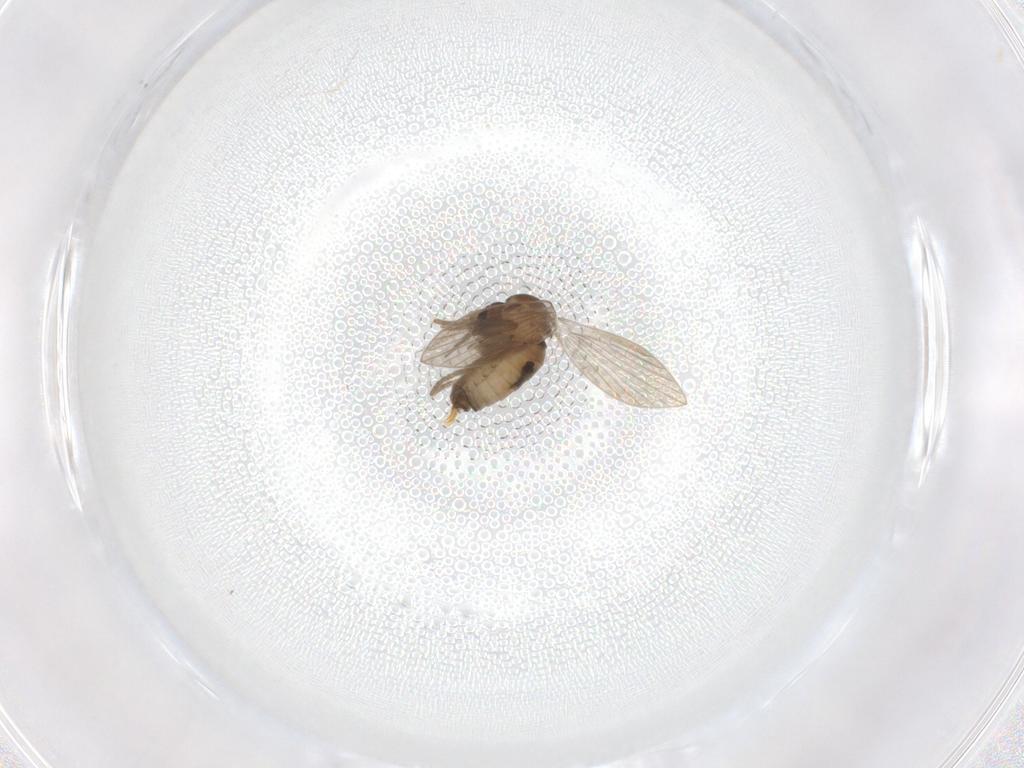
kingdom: Animalia
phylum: Arthropoda
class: Insecta
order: Diptera
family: Psychodidae
